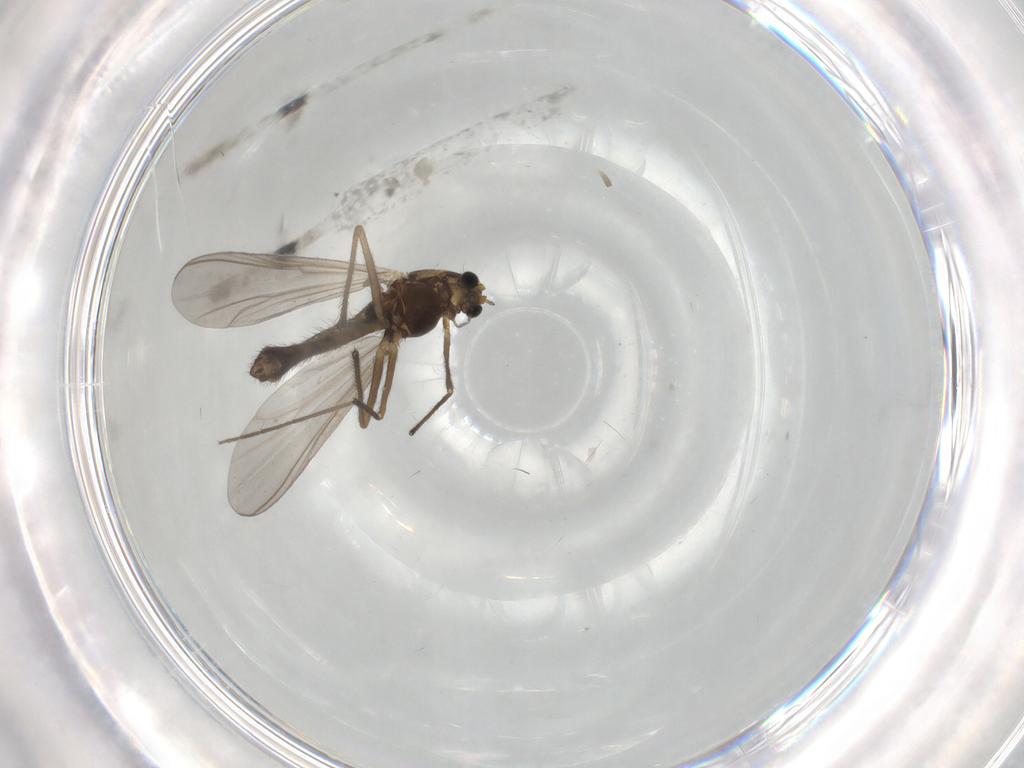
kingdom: Animalia
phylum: Arthropoda
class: Insecta
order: Diptera
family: Chironomidae
